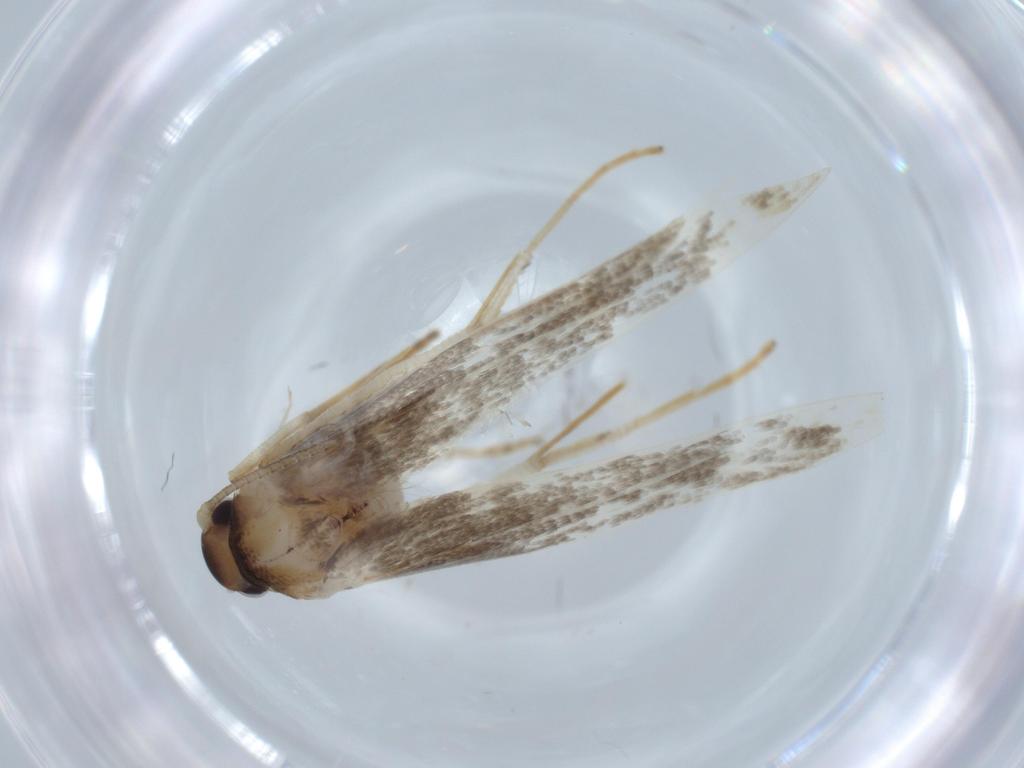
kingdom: Animalia
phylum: Arthropoda
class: Insecta
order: Lepidoptera
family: Stathmopodidae
